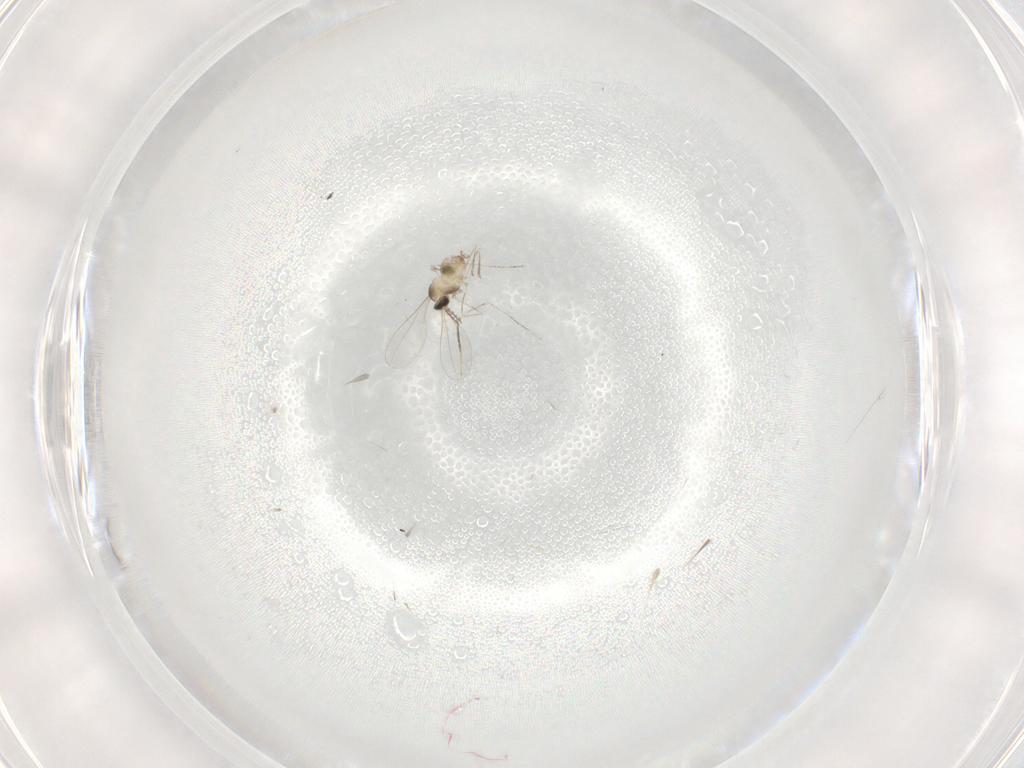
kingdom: Animalia
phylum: Arthropoda
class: Insecta
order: Diptera
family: Cecidomyiidae
